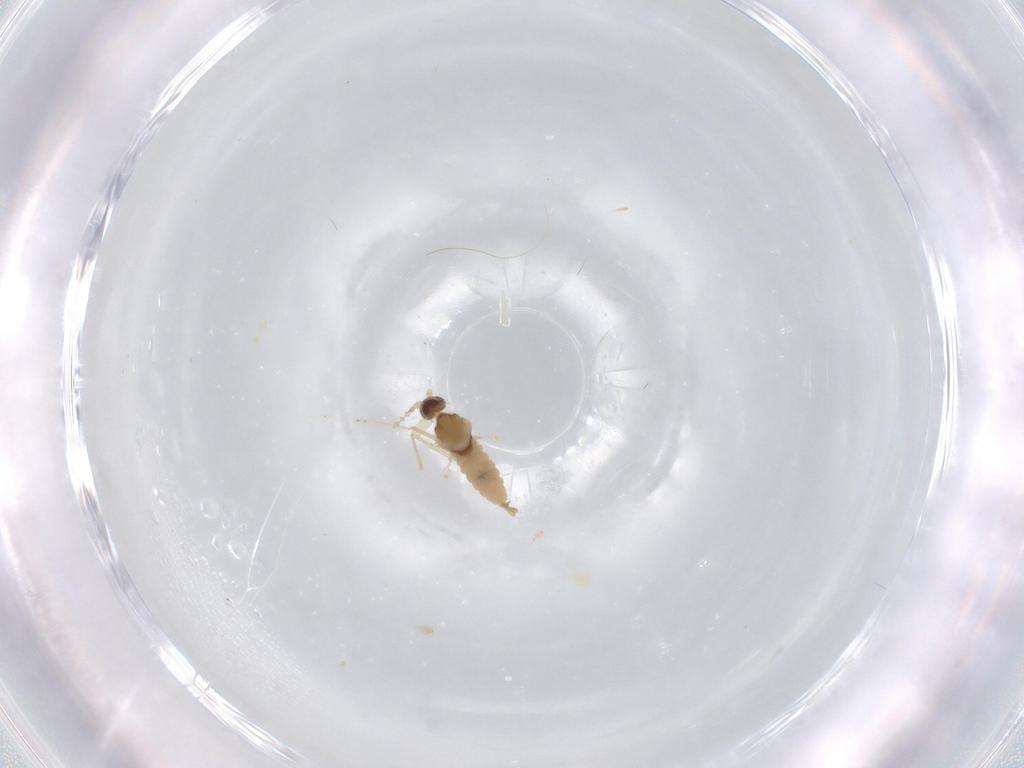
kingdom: Animalia
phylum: Arthropoda
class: Insecta
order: Diptera
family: Cecidomyiidae
